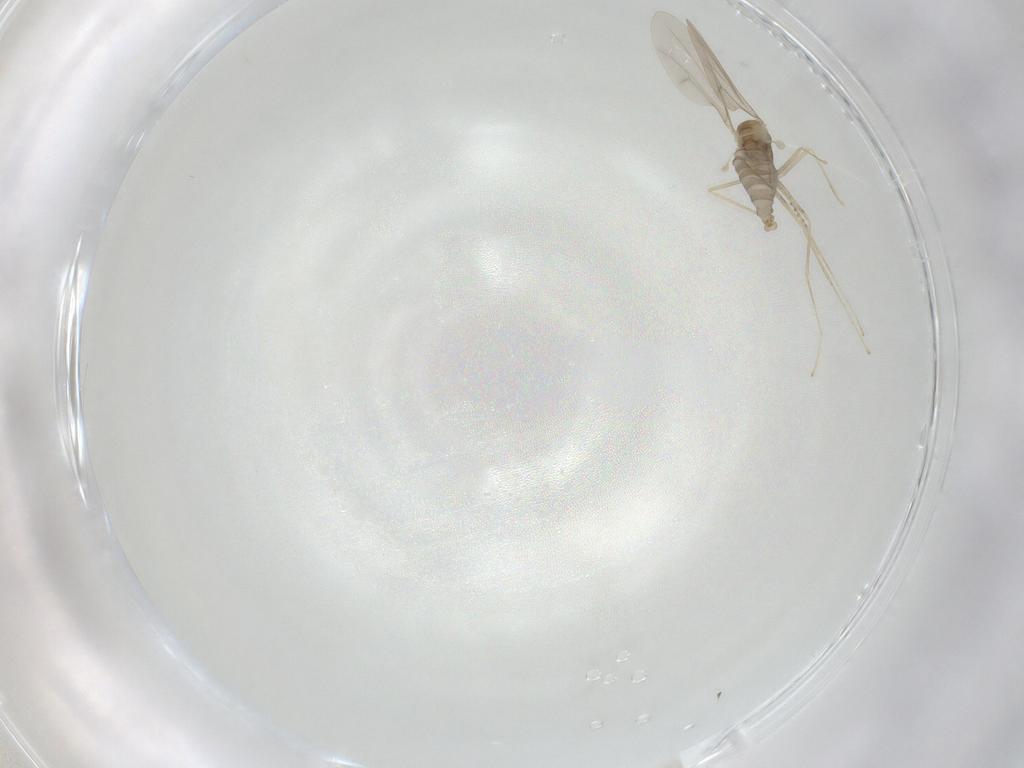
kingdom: Animalia
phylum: Arthropoda
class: Insecta
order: Diptera
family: Cecidomyiidae
